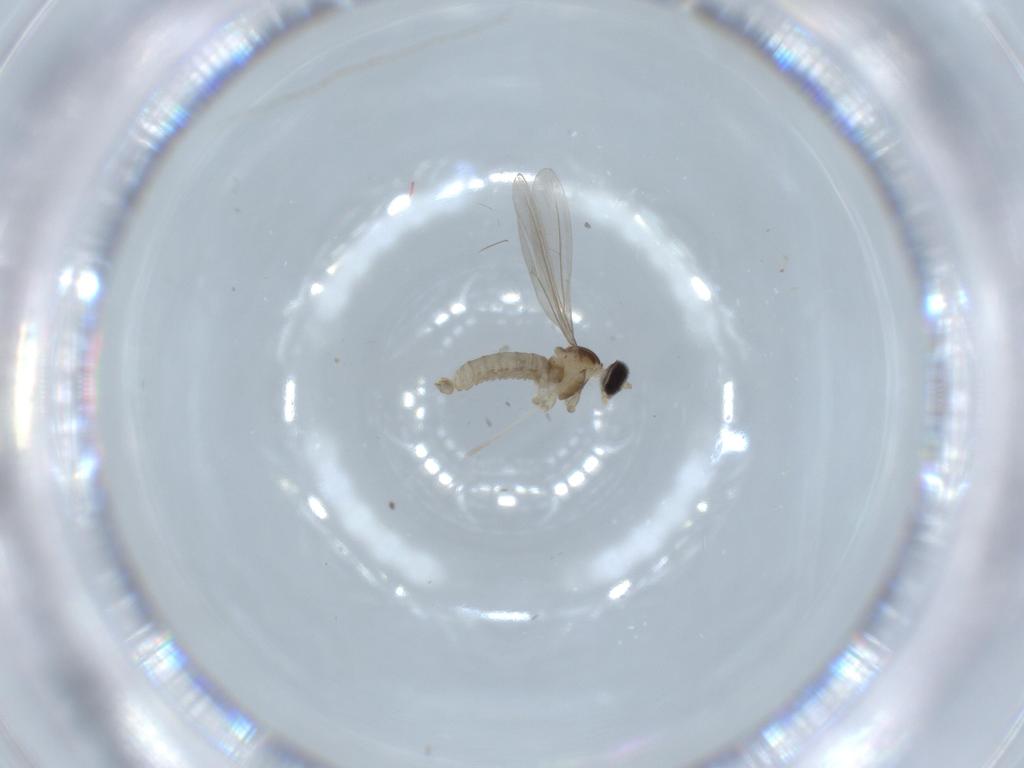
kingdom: Animalia
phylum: Arthropoda
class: Insecta
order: Diptera
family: Cecidomyiidae
